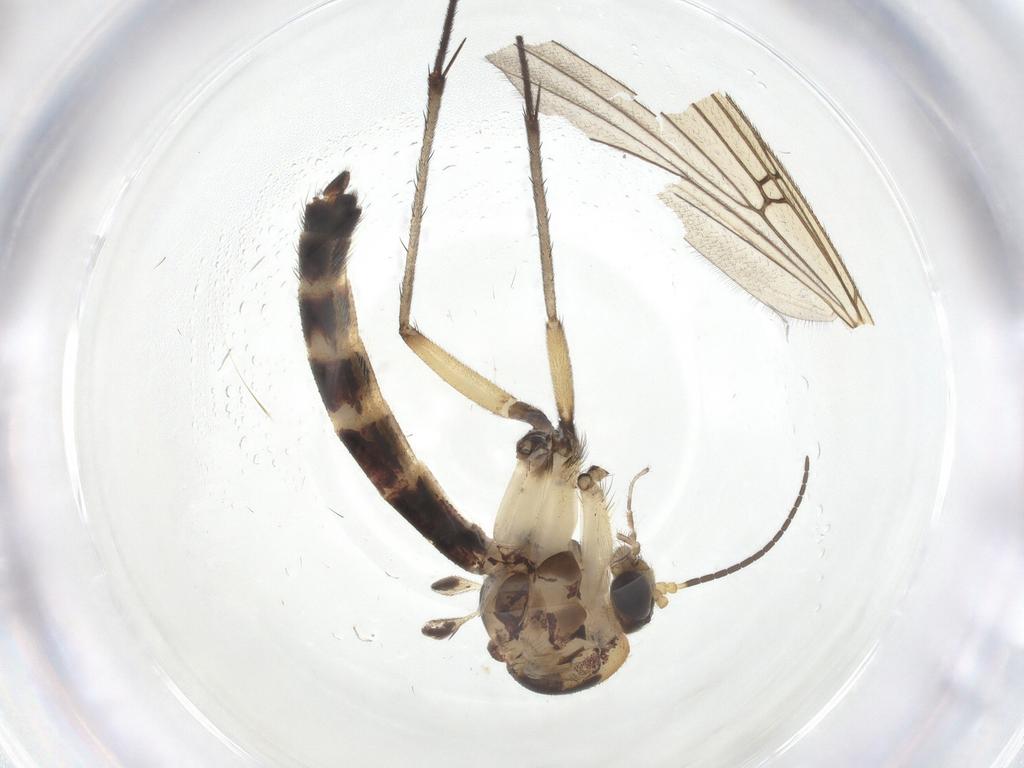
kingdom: Animalia
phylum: Arthropoda
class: Insecta
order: Diptera
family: Mycetophilidae
